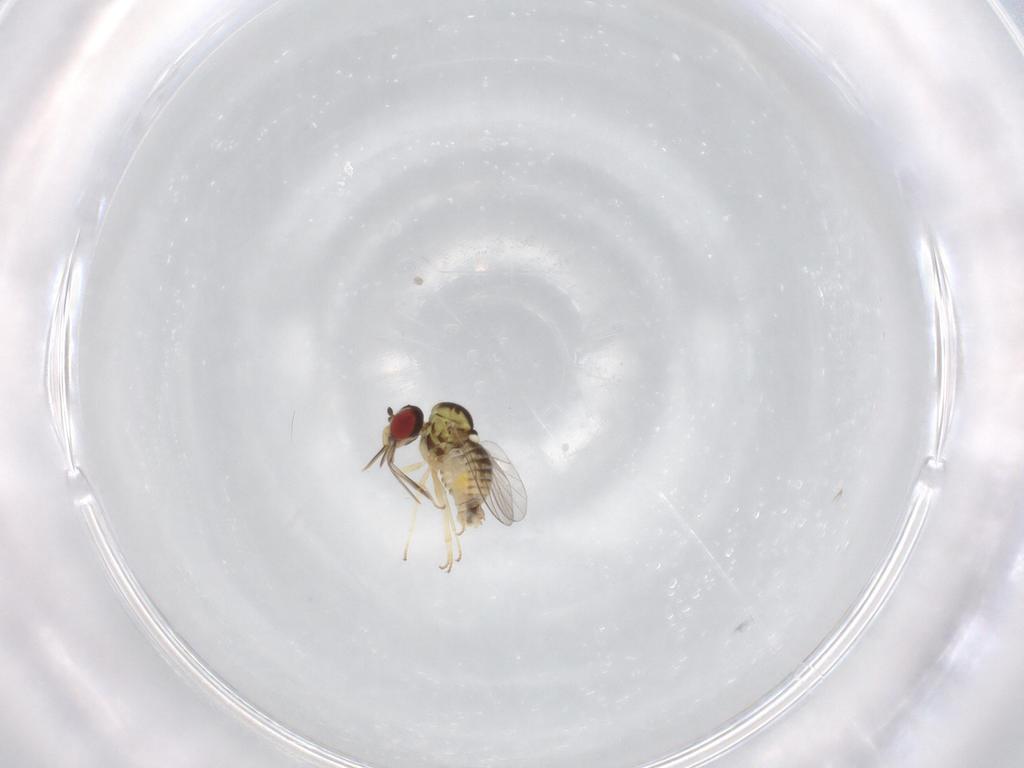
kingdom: Animalia
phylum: Arthropoda
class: Insecta
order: Diptera
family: Bombyliidae
